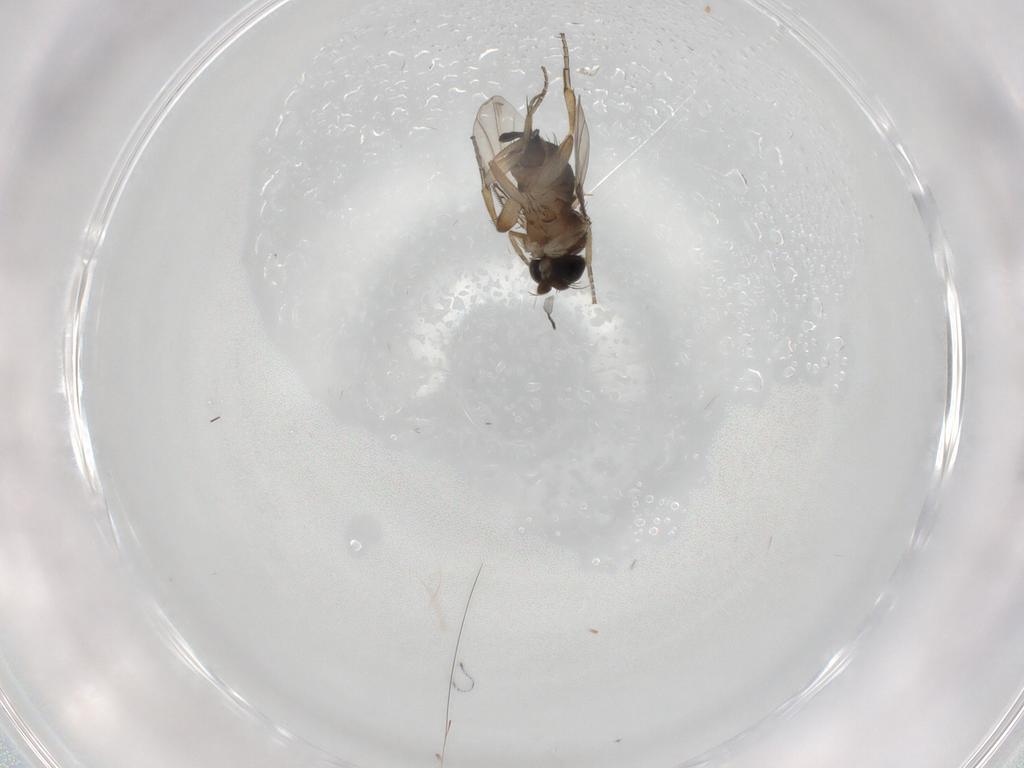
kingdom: Animalia
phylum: Arthropoda
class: Insecta
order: Diptera
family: Phoridae
